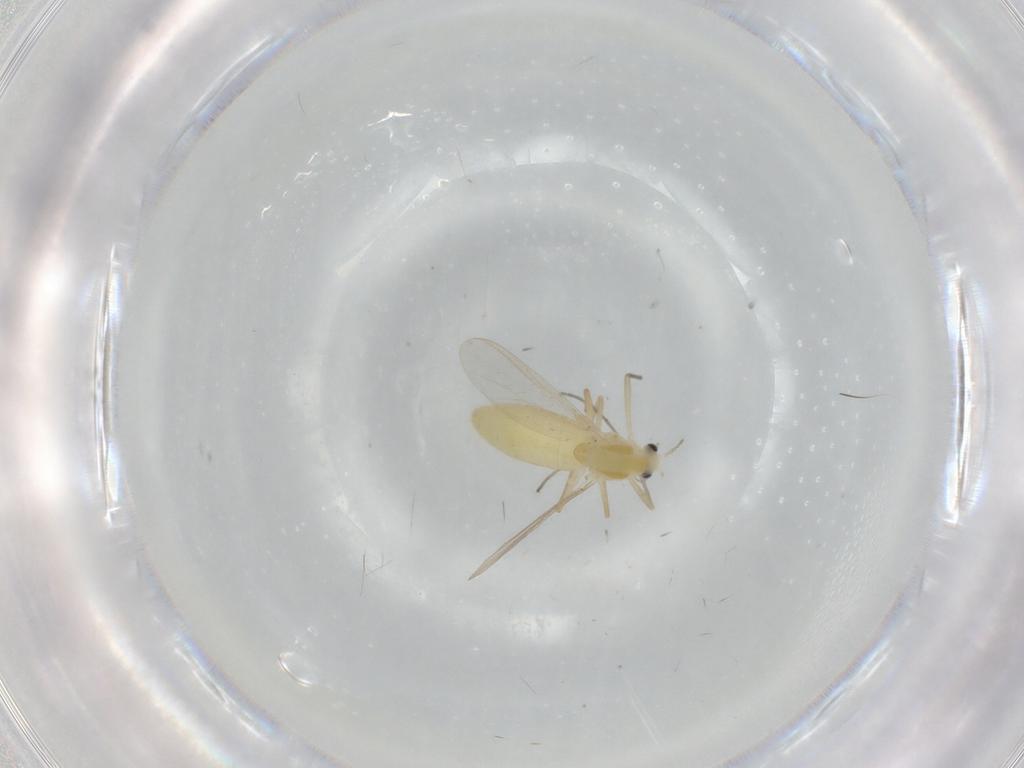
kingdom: Animalia
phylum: Arthropoda
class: Insecta
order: Diptera
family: Chironomidae
